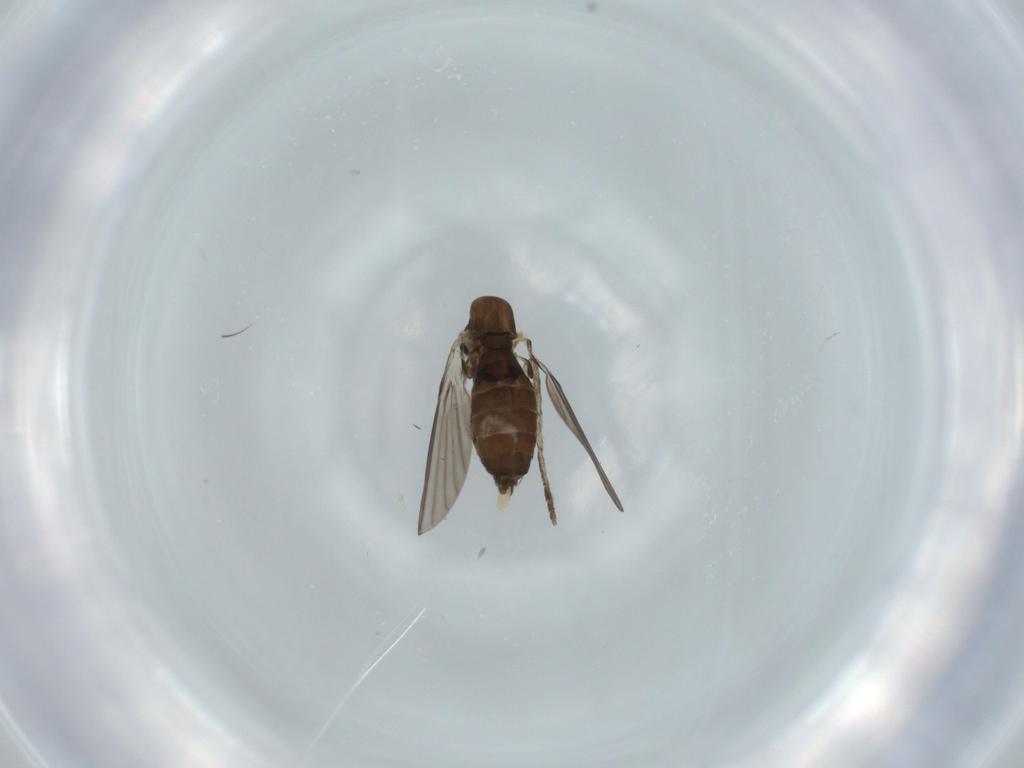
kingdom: Animalia
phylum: Arthropoda
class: Insecta
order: Diptera
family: Psychodidae
